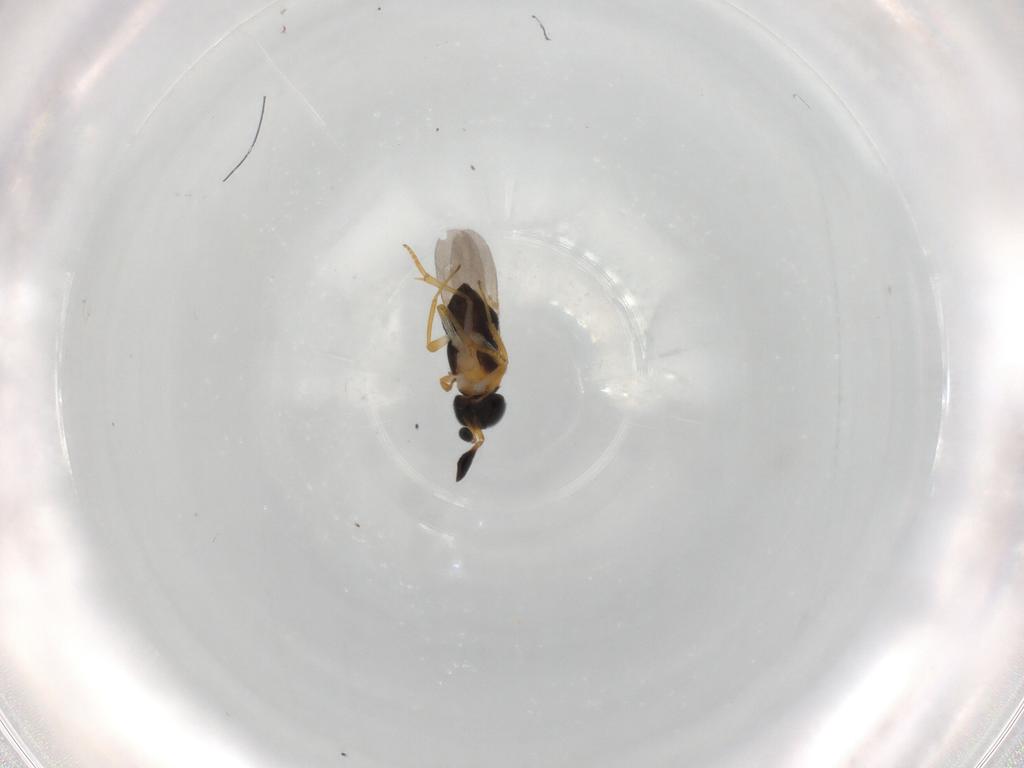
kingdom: Animalia
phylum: Arthropoda
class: Insecta
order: Hymenoptera
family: Encyrtidae
